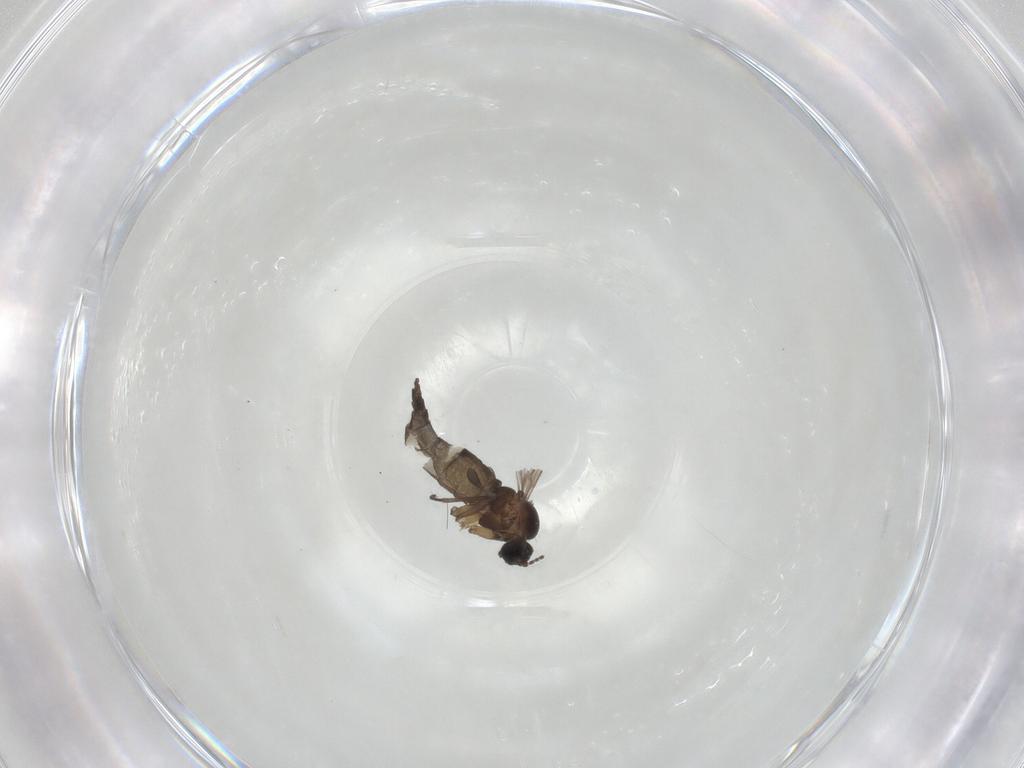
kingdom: Animalia
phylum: Arthropoda
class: Insecta
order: Diptera
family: Sciaridae
